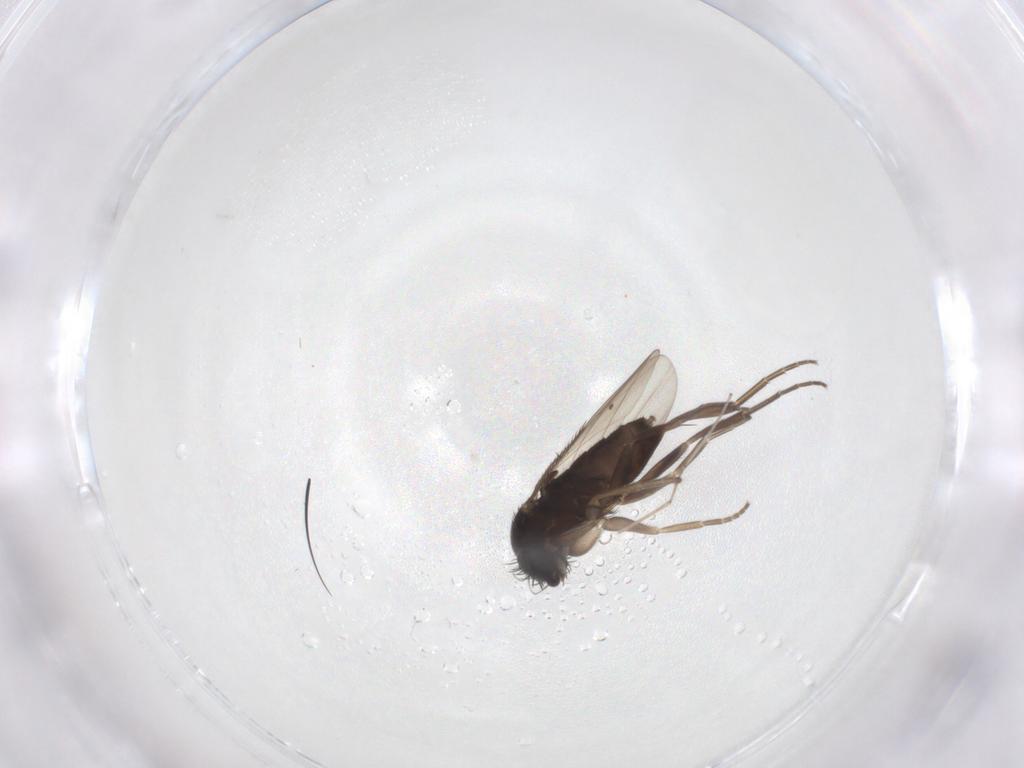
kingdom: Animalia
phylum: Arthropoda
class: Insecta
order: Diptera
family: Phoridae
